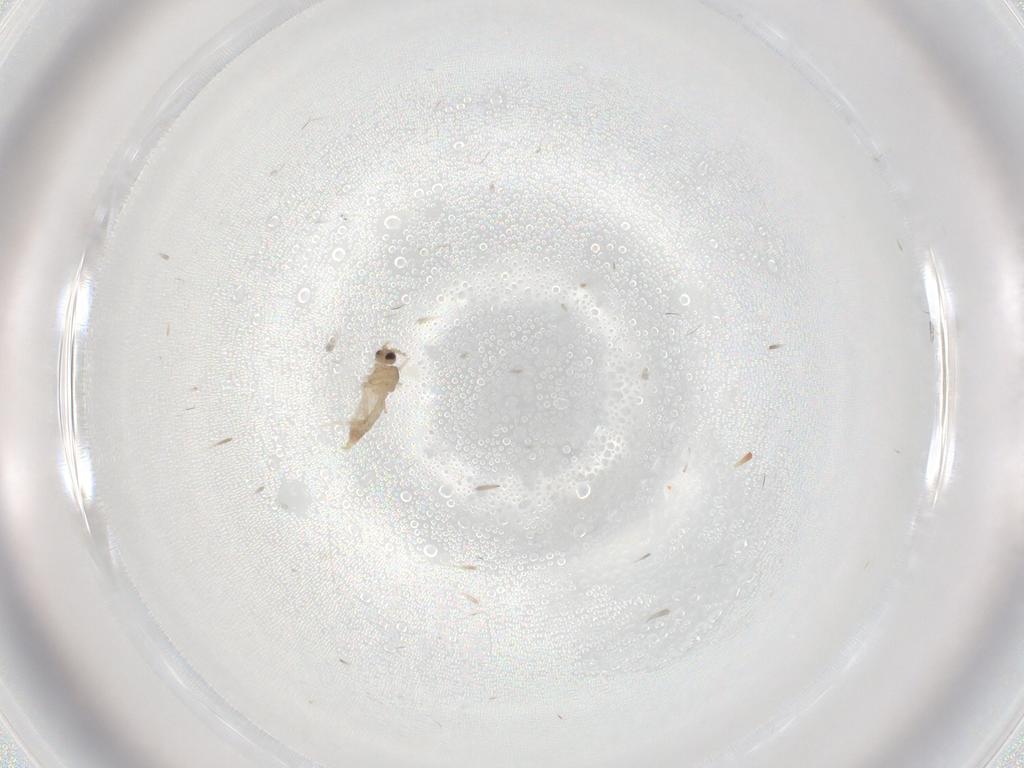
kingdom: Animalia
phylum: Arthropoda
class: Insecta
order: Diptera
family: Cecidomyiidae
